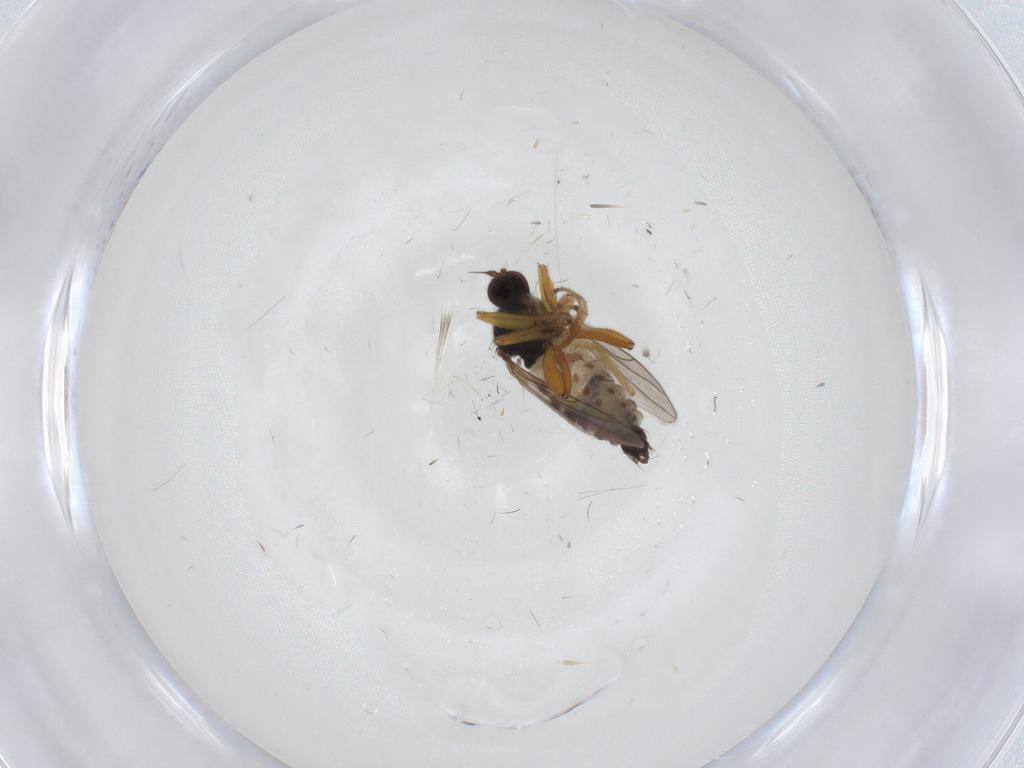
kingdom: Animalia
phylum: Arthropoda
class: Insecta
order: Diptera
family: Hybotidae
